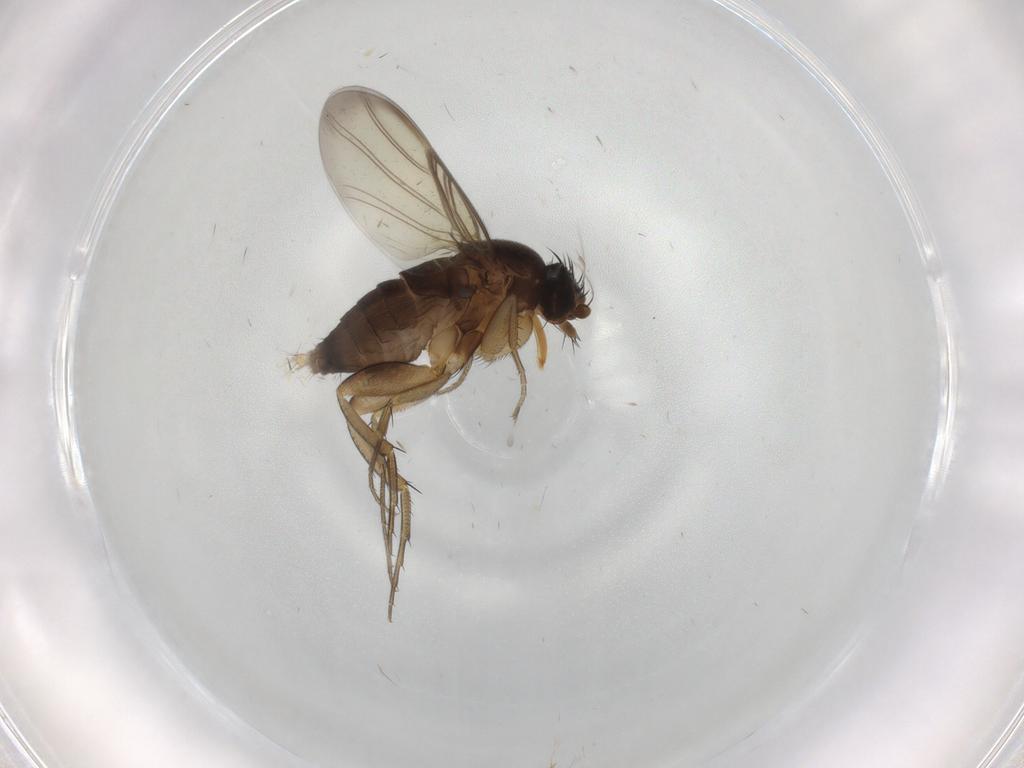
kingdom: Animalia
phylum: Arthropoda
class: Insecta
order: Diptera
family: Phoridae
